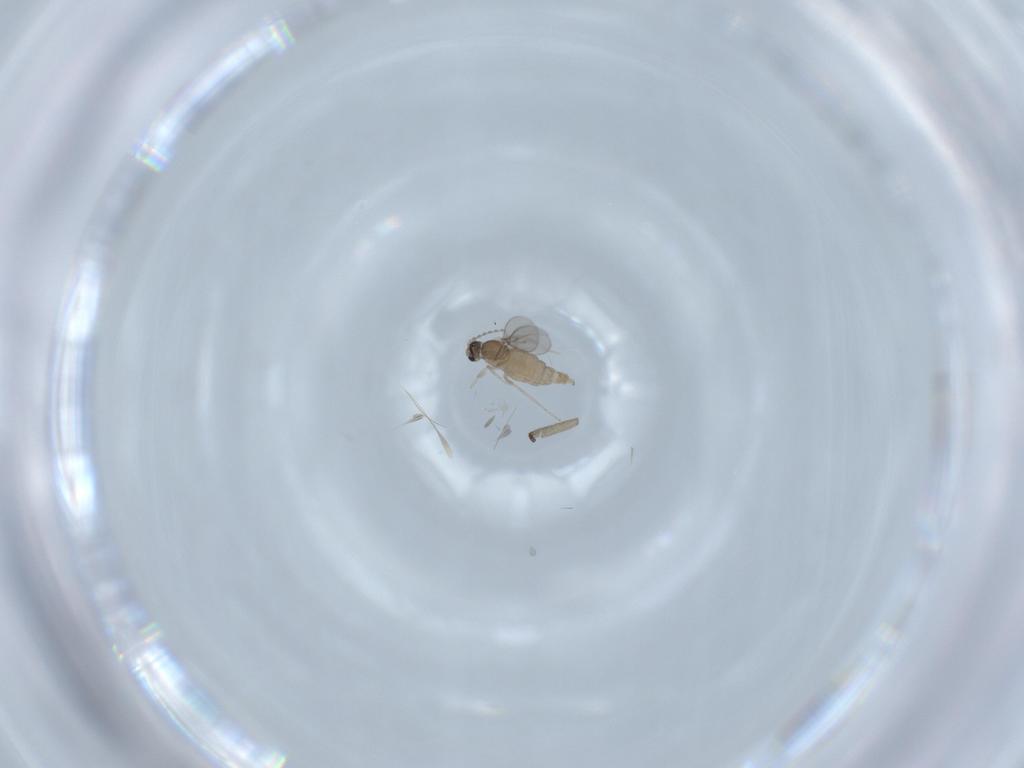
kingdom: Animalia
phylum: Arthropoda
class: Insecta
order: Diptera
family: Cecidomyiidae
